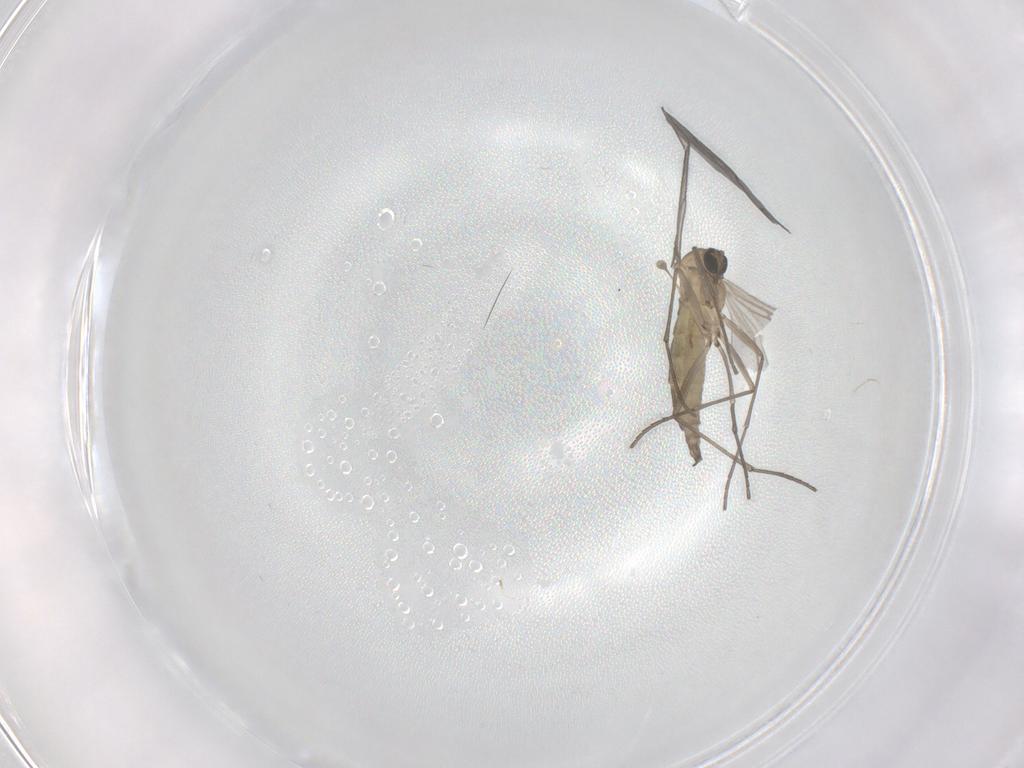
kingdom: Animalia
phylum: Arthropoda
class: Insecta
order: Diptera
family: Sciaridae
